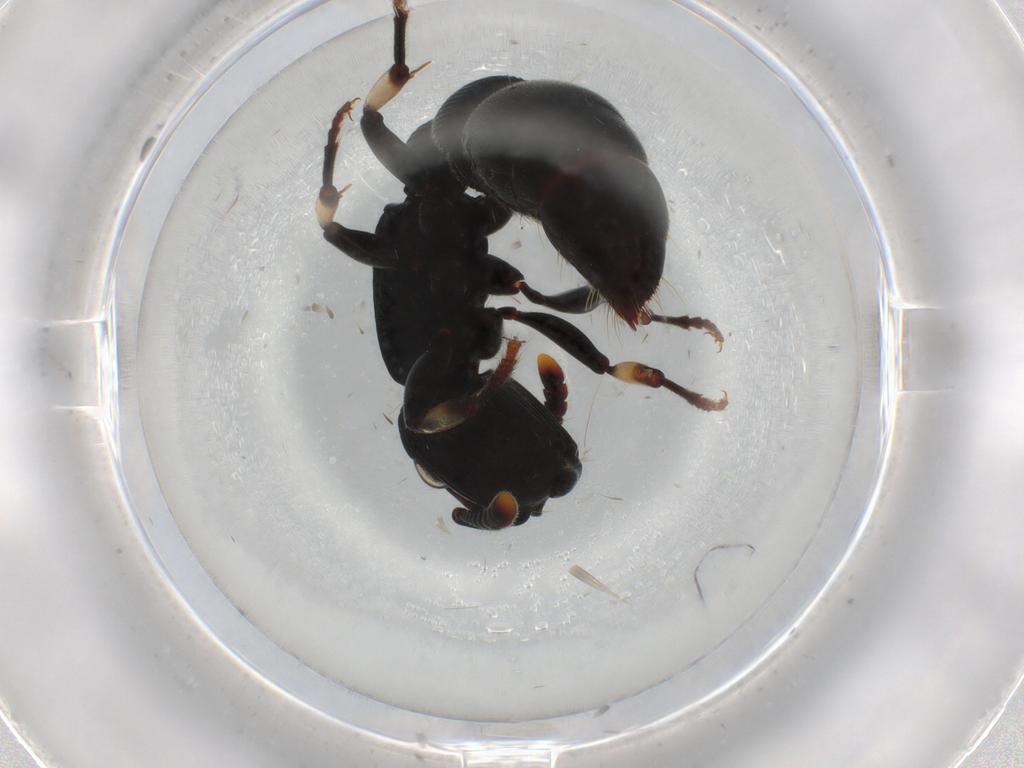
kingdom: Animalia
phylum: Arthropoda
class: Insecta
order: Hymenoptera
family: Formicidae
